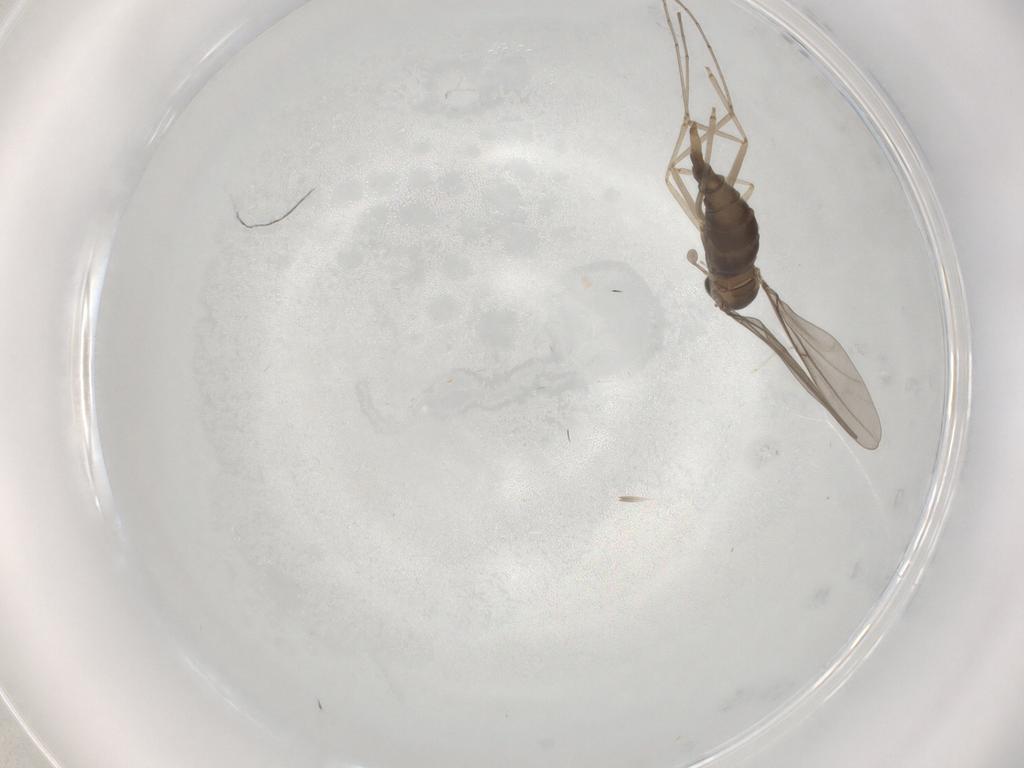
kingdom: Animalia
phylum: Arthropoda
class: Insecta
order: Diptera
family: Cecidomyiidae
